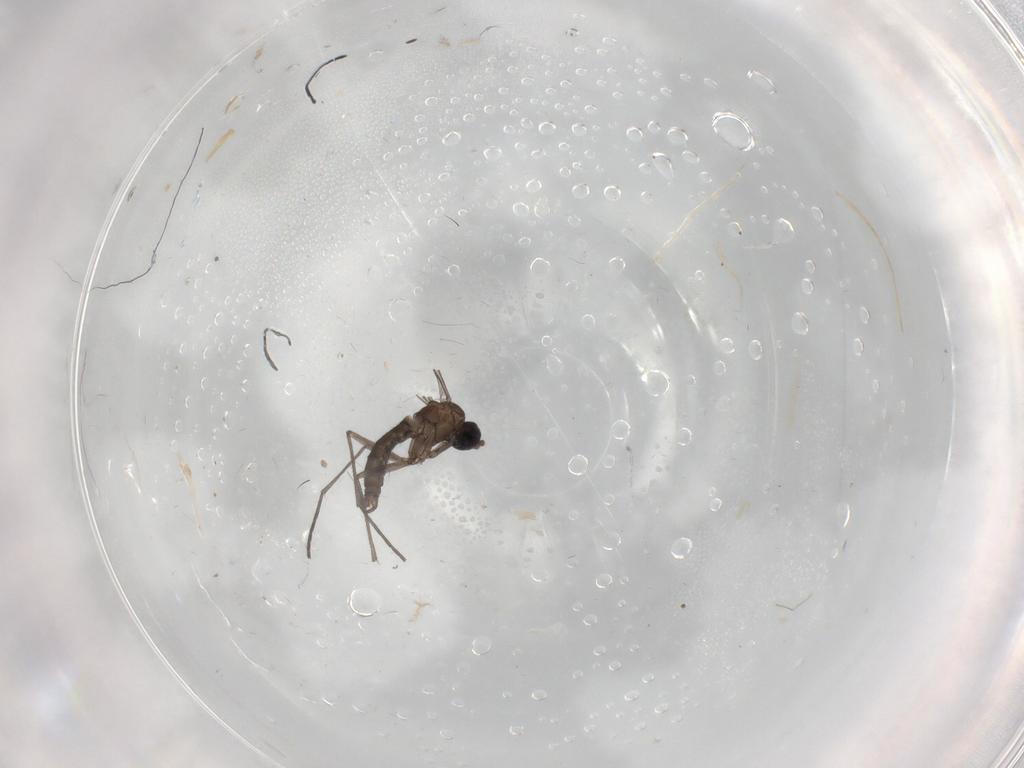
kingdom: Animalia
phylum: Arthropoda
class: Insecta
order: Diptera
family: Sciaridae
